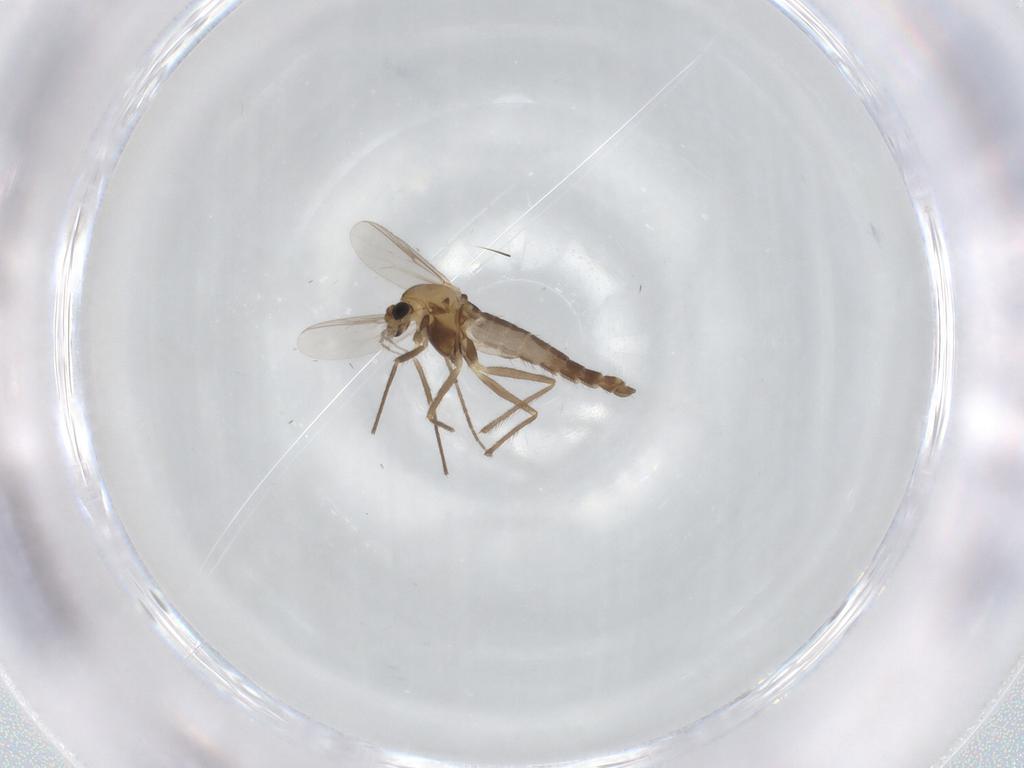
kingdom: Animalia
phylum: Arthropoda
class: Insecta
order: Diptera
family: Chironomidae
